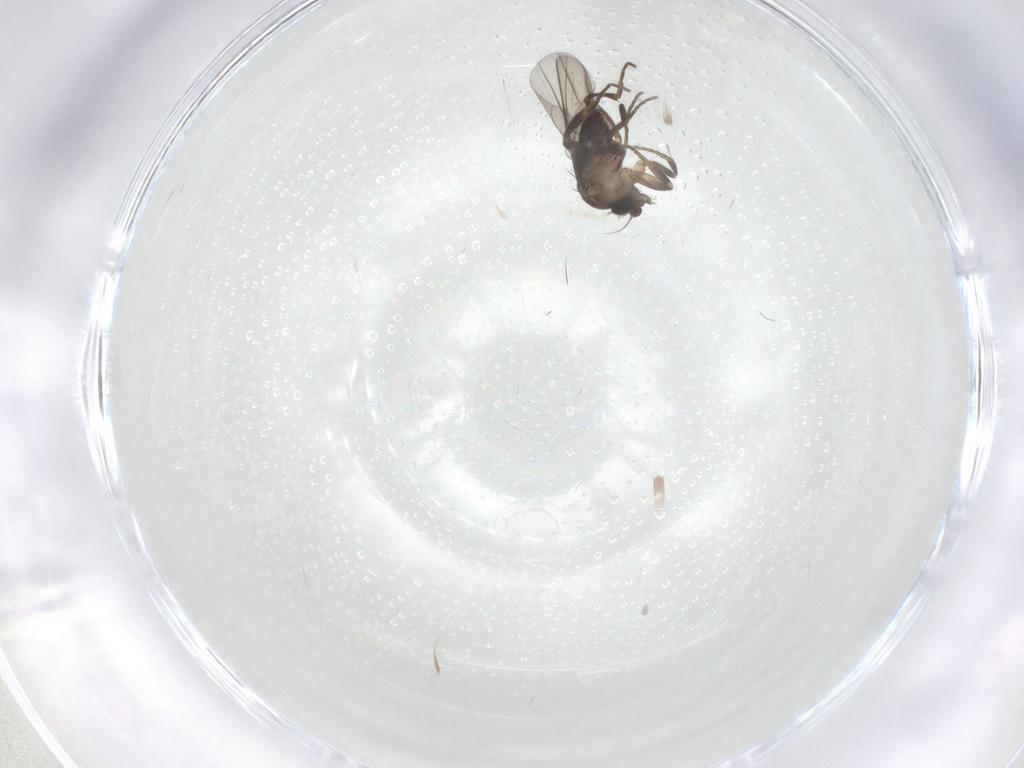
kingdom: Animalia
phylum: Arthropoda
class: Insecta
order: Diptera
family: Phoridae
